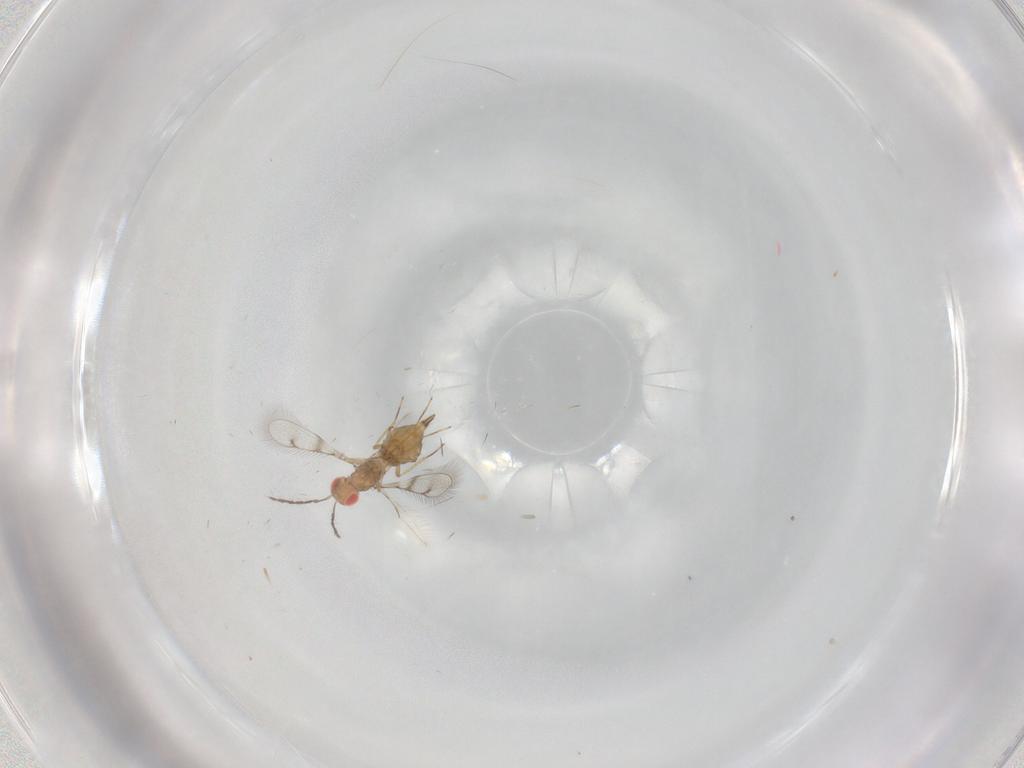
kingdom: Animalia
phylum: Arthropoda
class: Insecta
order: Hymenoptera
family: Eulophidae
